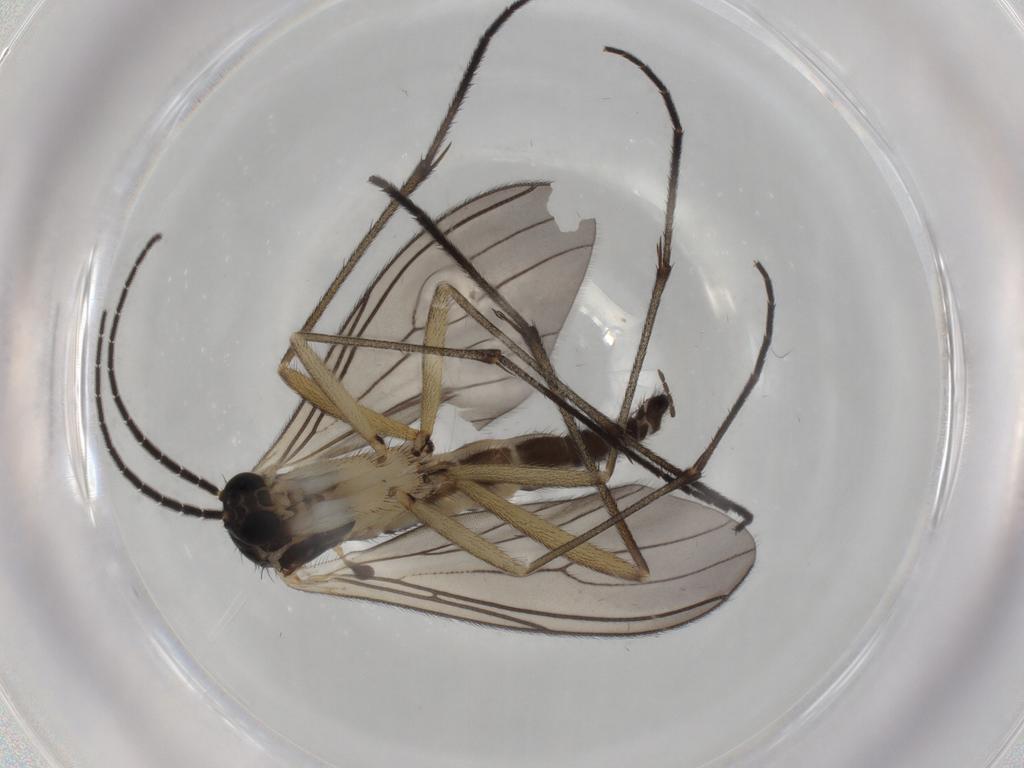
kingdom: Animalia
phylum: Arthropoda
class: Insecta
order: Diptera
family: Sciaridae
